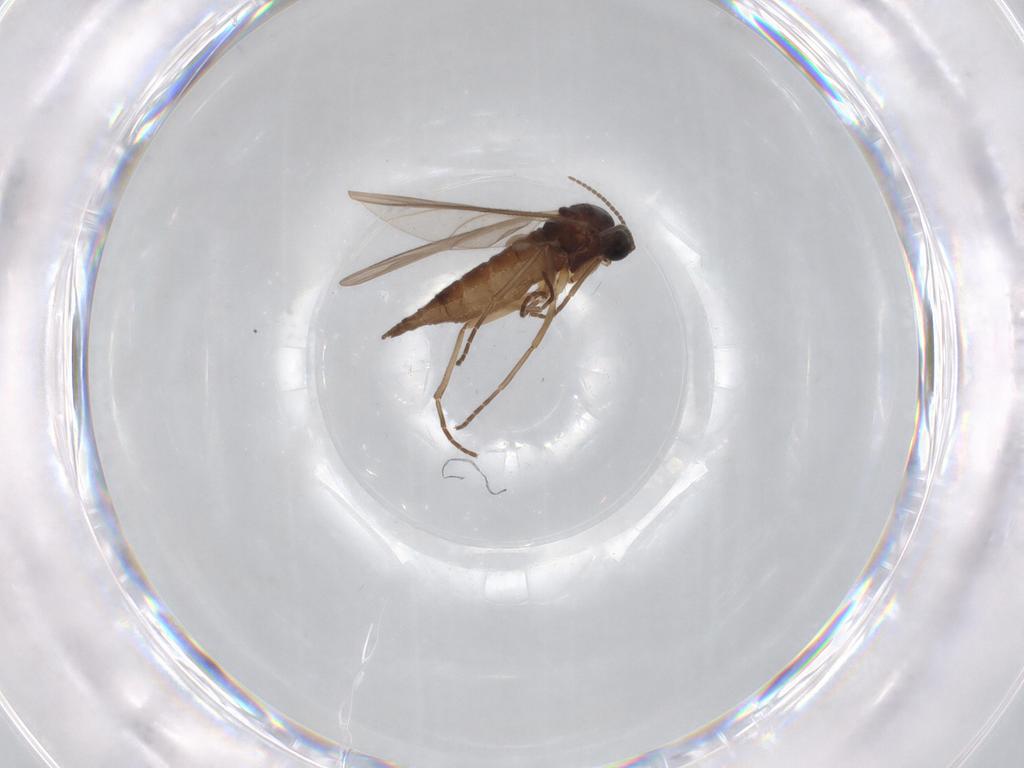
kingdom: Animalia
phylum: Arthropoda
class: Insecta
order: Diptera
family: Sciaridae
